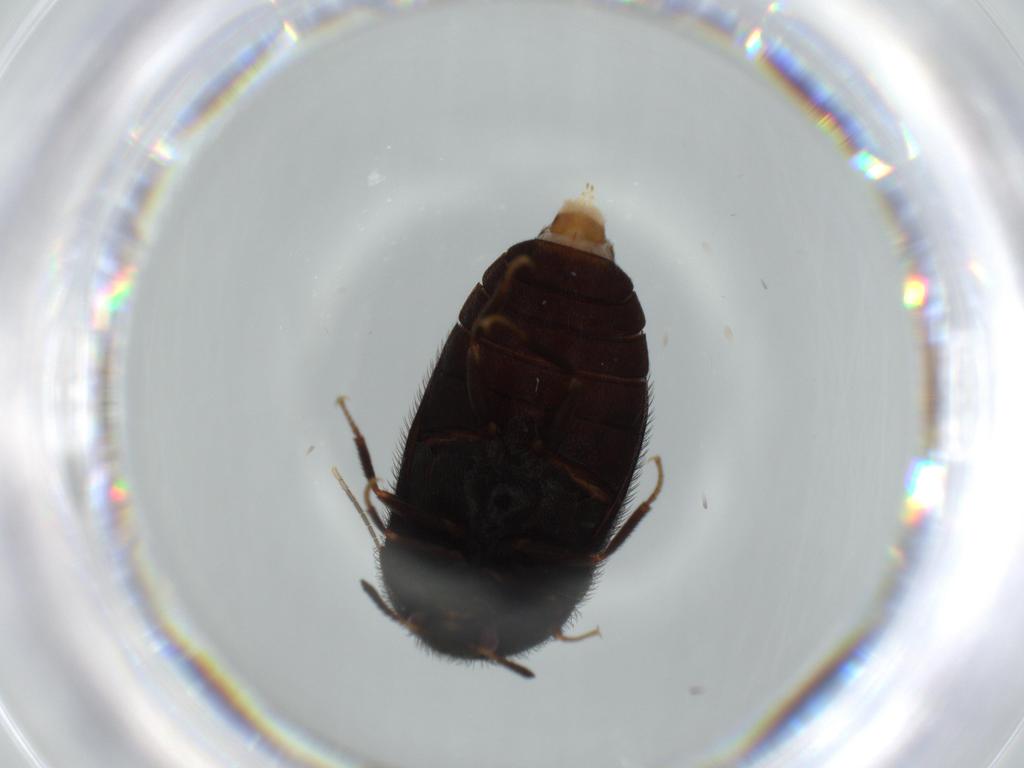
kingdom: Animalia
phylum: Arthropoda
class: Insecta
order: Coleoptera
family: Dermestidae
